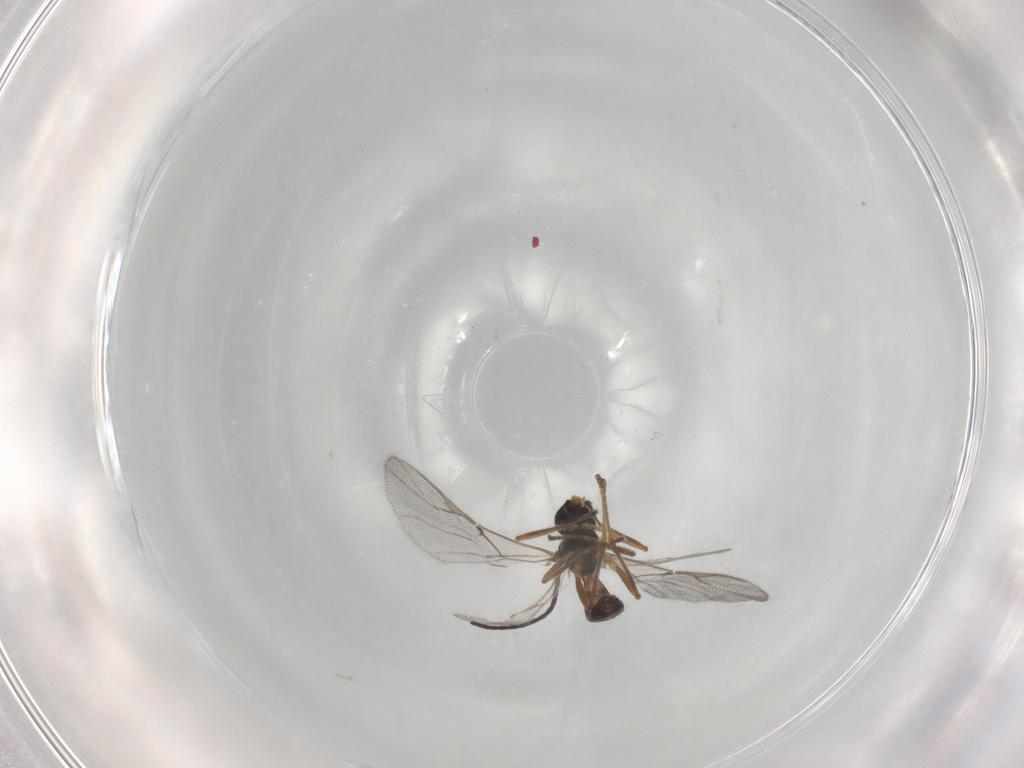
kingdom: Animalia
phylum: Arthropoda
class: Insecta
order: Hymenoptera
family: Braconidae
